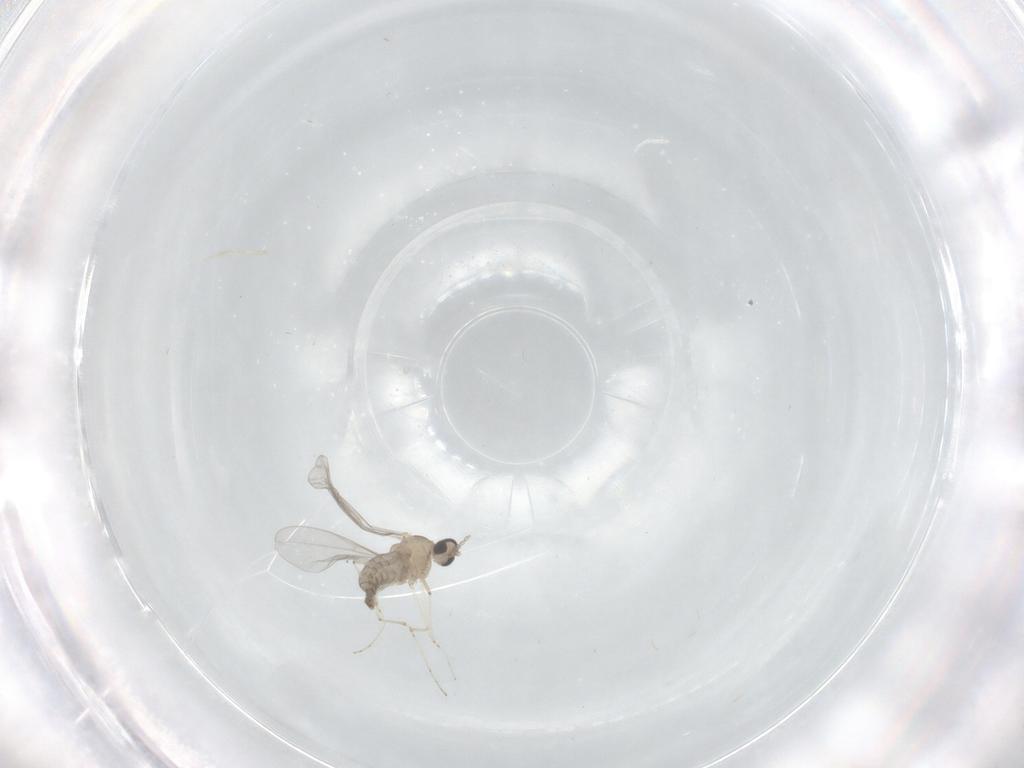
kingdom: Animalia
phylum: Arthropoda
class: Insecta
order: Diptera
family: Cecidomyiidae
